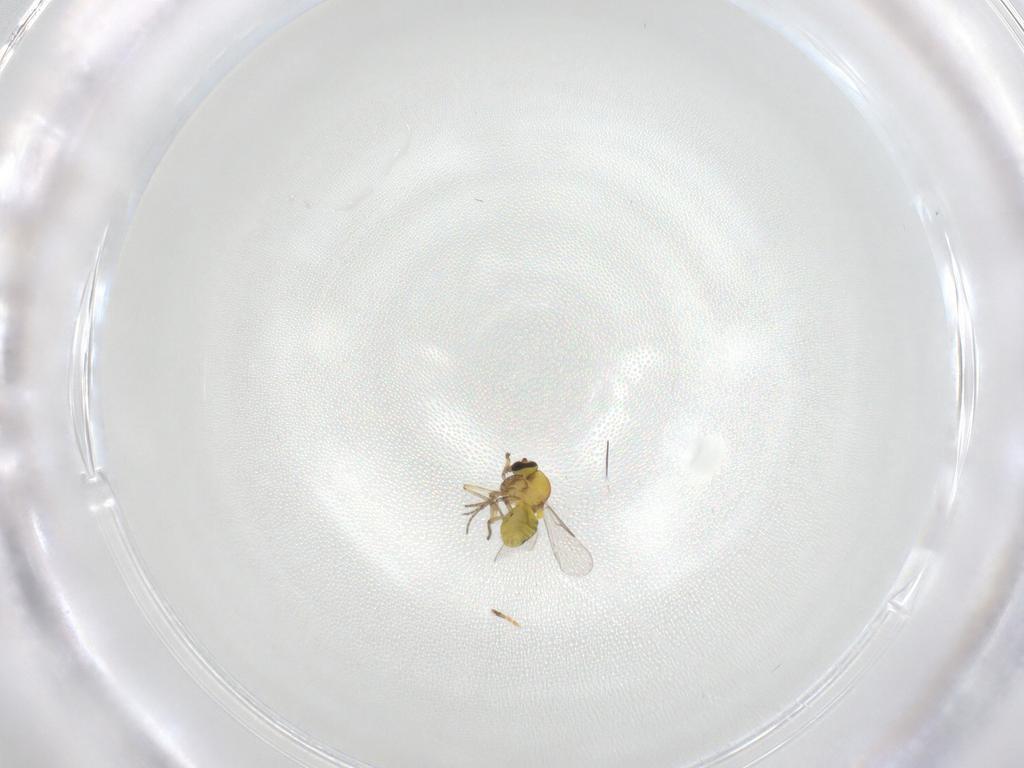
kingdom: Animalia
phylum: Arthropoda
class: Insecta
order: Diptera
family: Ceratopogonidae
